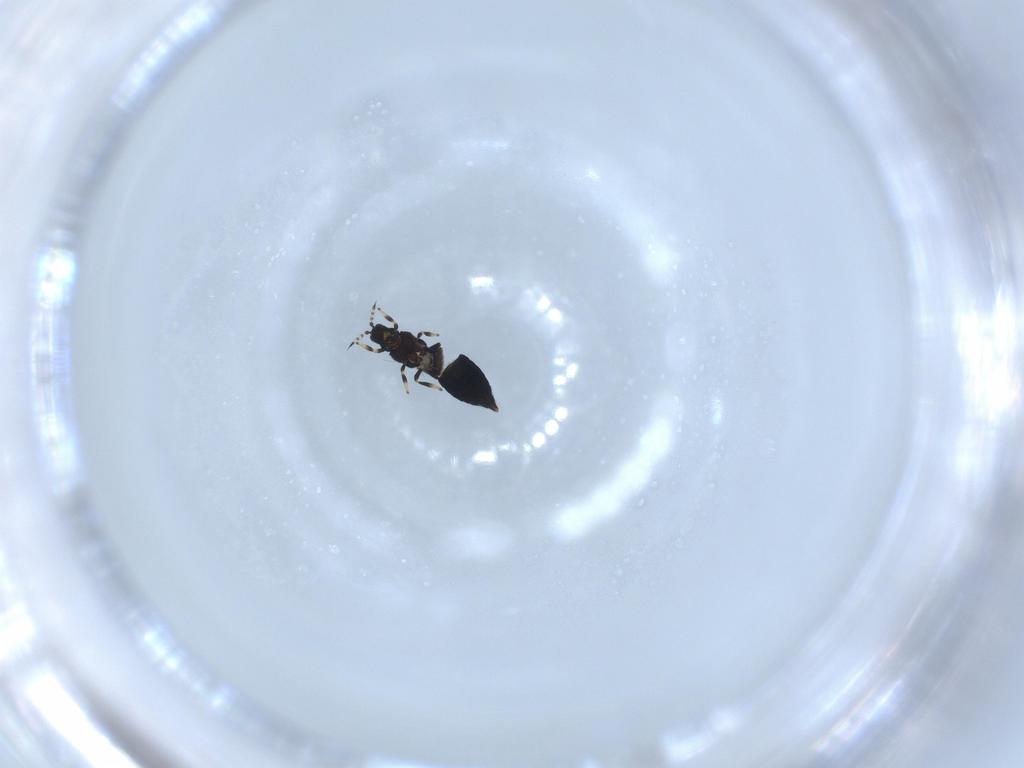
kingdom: Animalia
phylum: Arthropoda
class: Insecta
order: Thysanoptera
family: Thripidae
